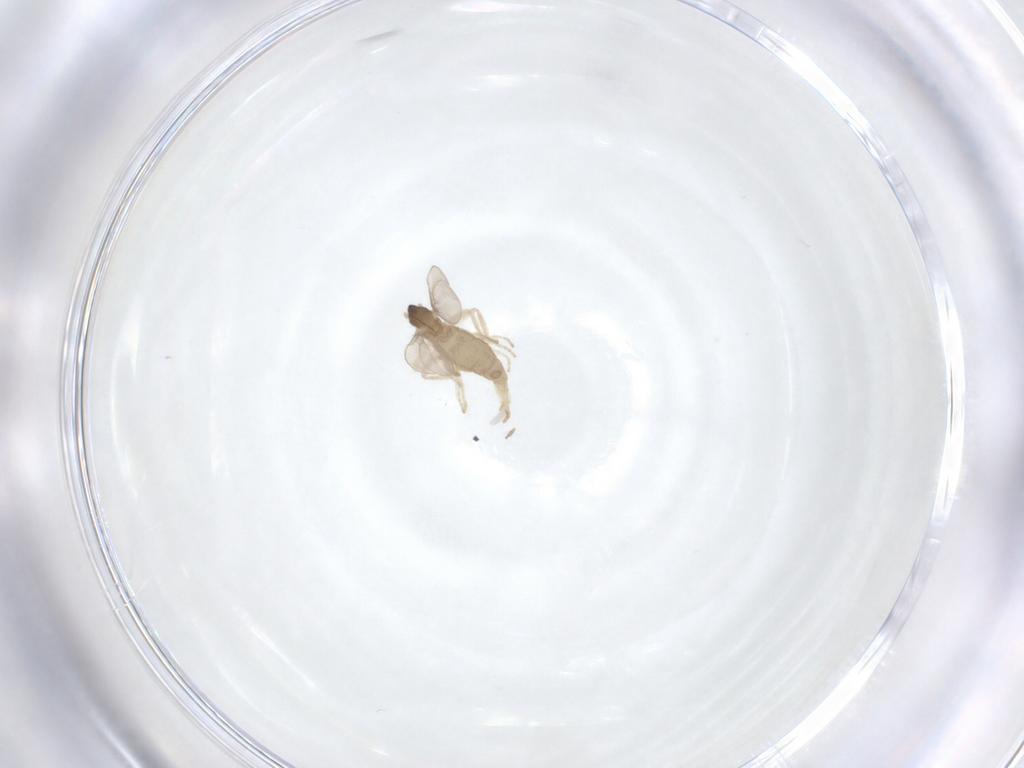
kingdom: Animalia
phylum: Arthropoda
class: Insecta
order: Diptera
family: Cecidomyiidae
